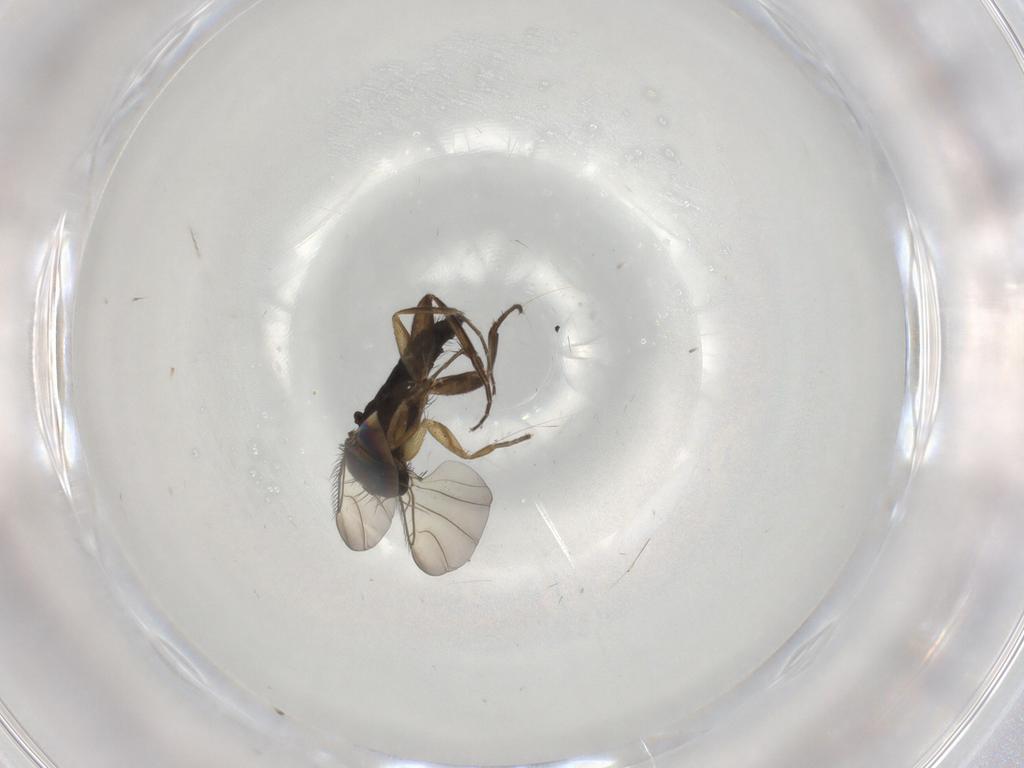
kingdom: Animalia
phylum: Arthropoda
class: Insecta
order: Diptera
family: Phoridae
